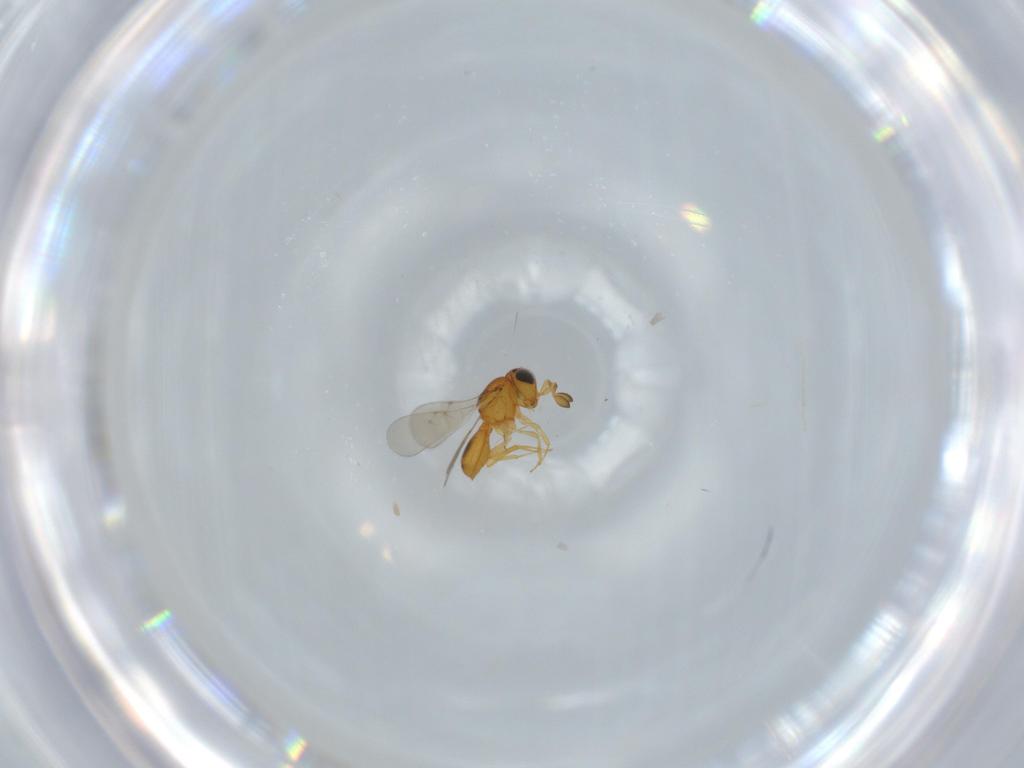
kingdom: Animalia
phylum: Arthropoda
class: Insecta
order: Hymenoptera
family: Scelionidae
